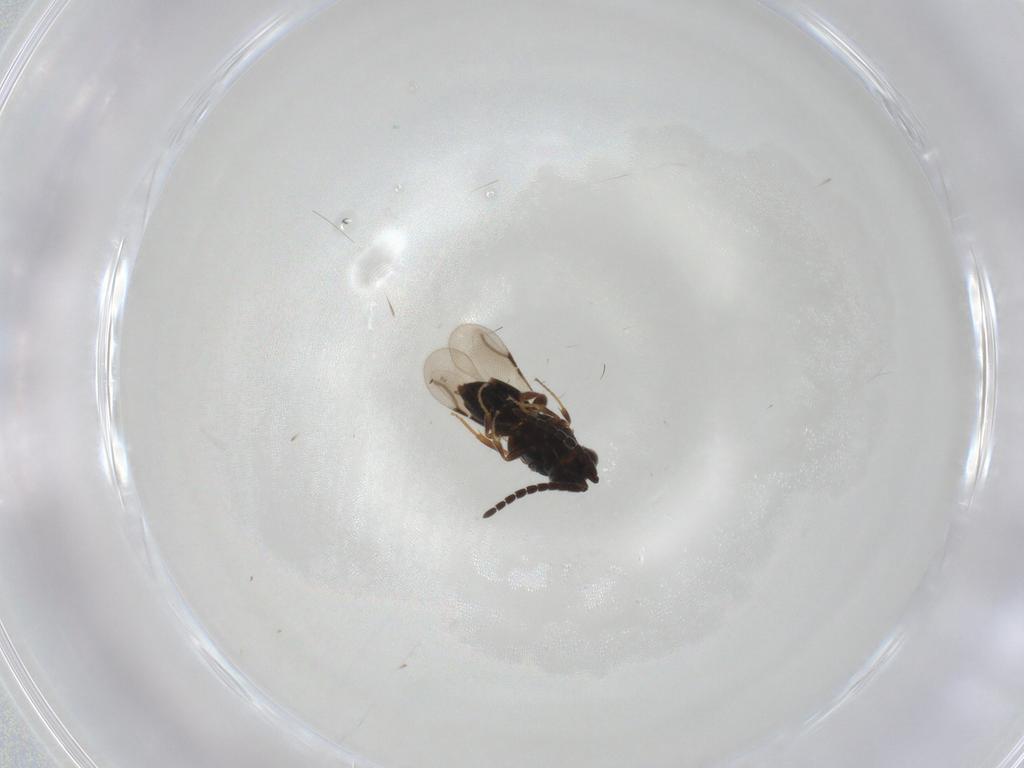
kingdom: Animalia
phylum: Arthropoda
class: Insecta
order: Hymenoptera
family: Ceraphronidae
